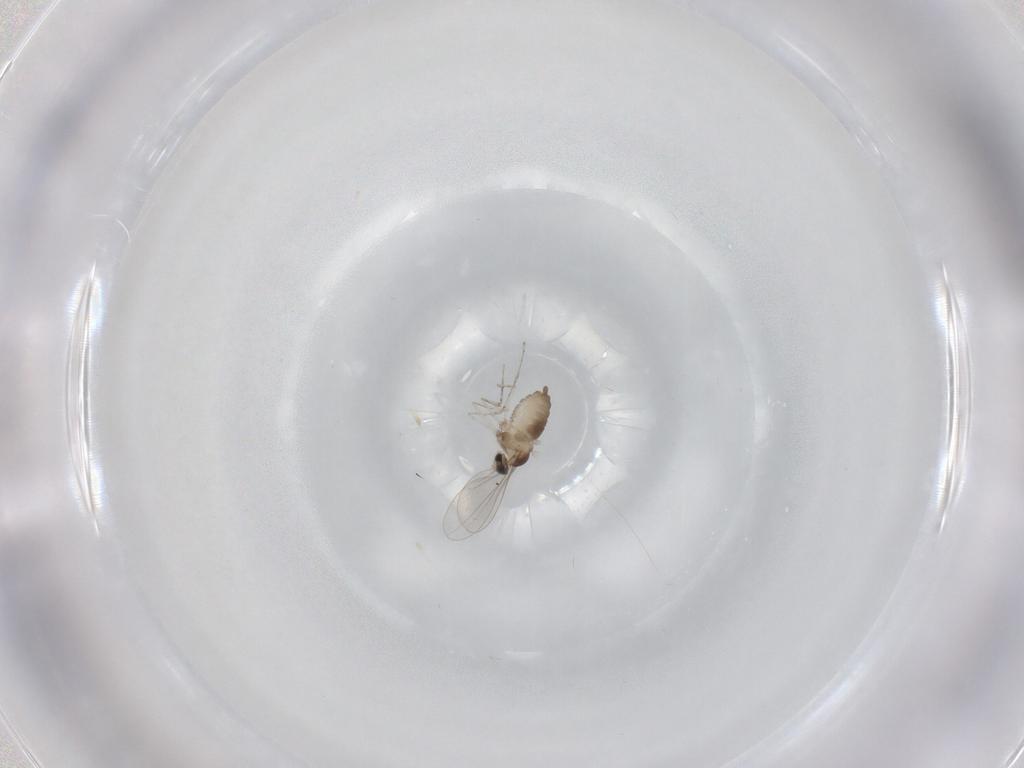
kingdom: Animalia
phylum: Arthropoda
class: Insecta
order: Diptera
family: Cecidomyiidae
